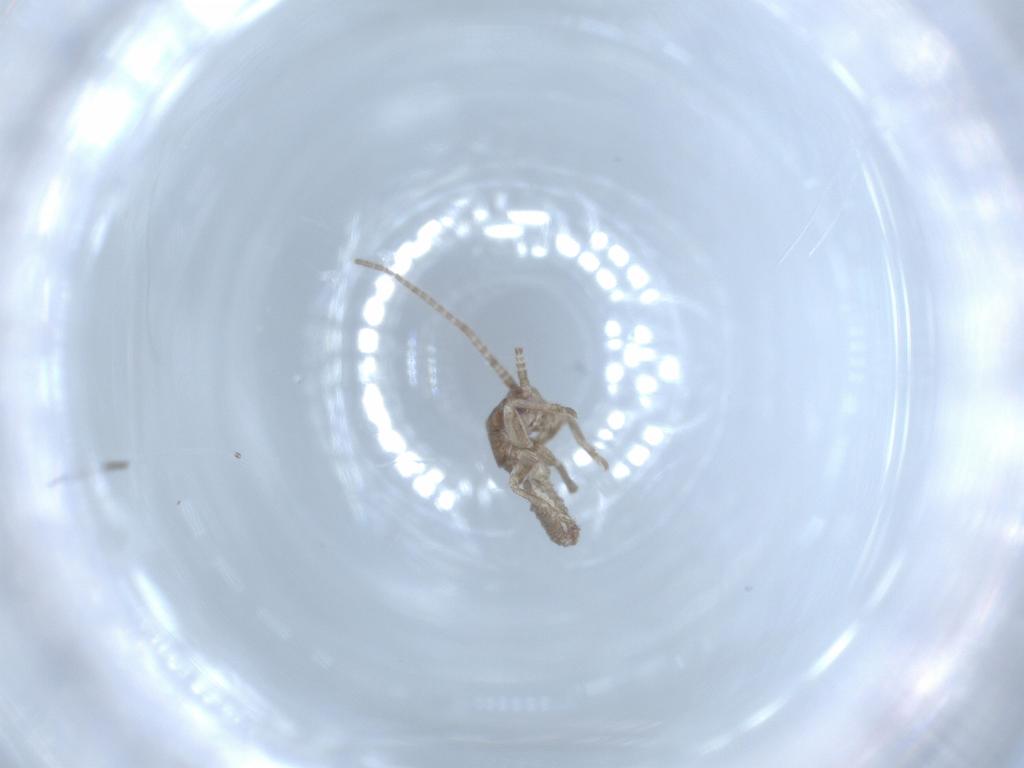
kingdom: Animalia
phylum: Arthropoda
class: Insecta
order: Orthoptera
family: Gryllidae
